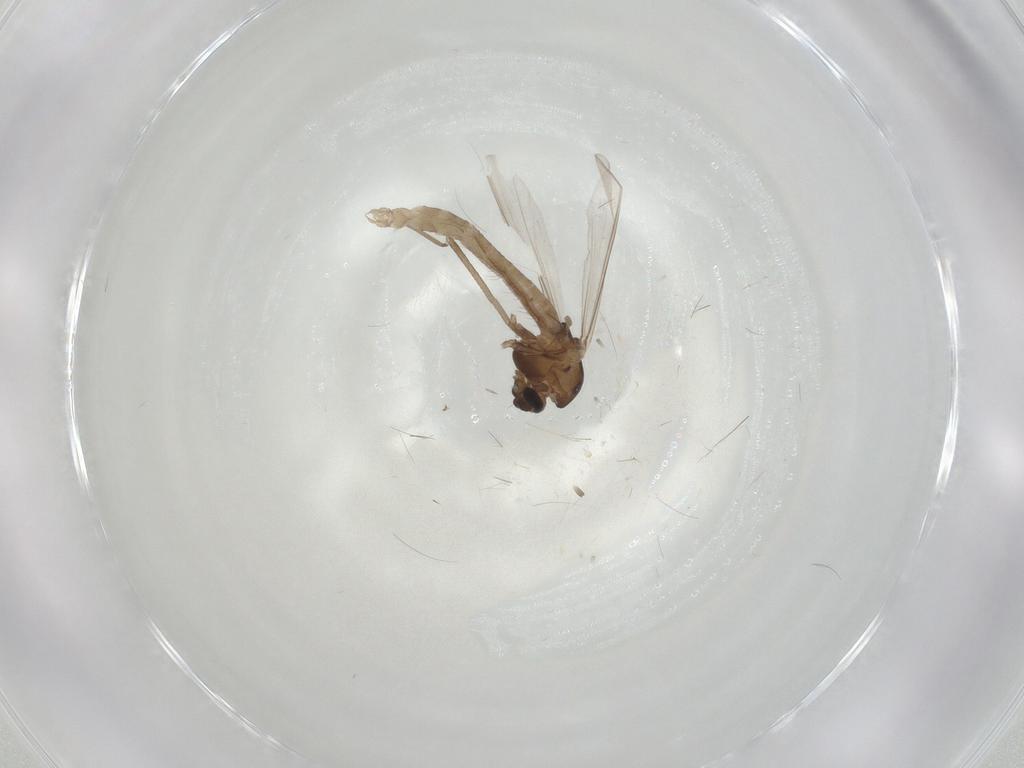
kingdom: Animalia
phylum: Arthropoda
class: Insecta
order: Diptera
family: Chironomidae
